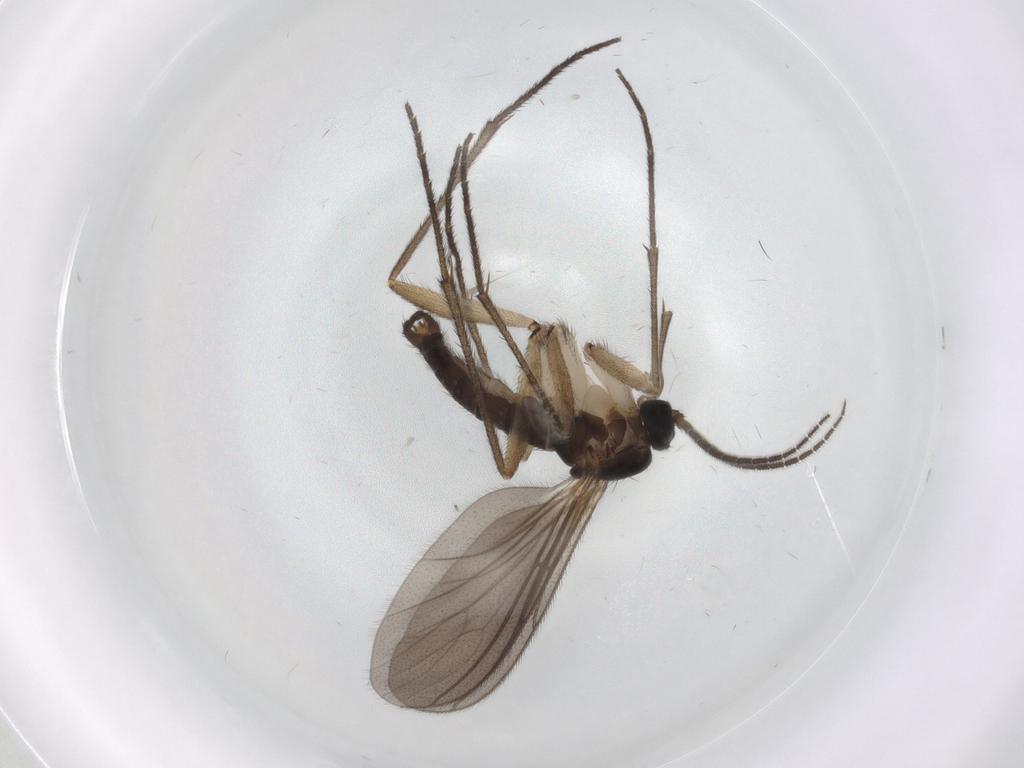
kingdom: Animalia
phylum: Arthropoda
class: Insecta
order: Diptera
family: Sciaridae
